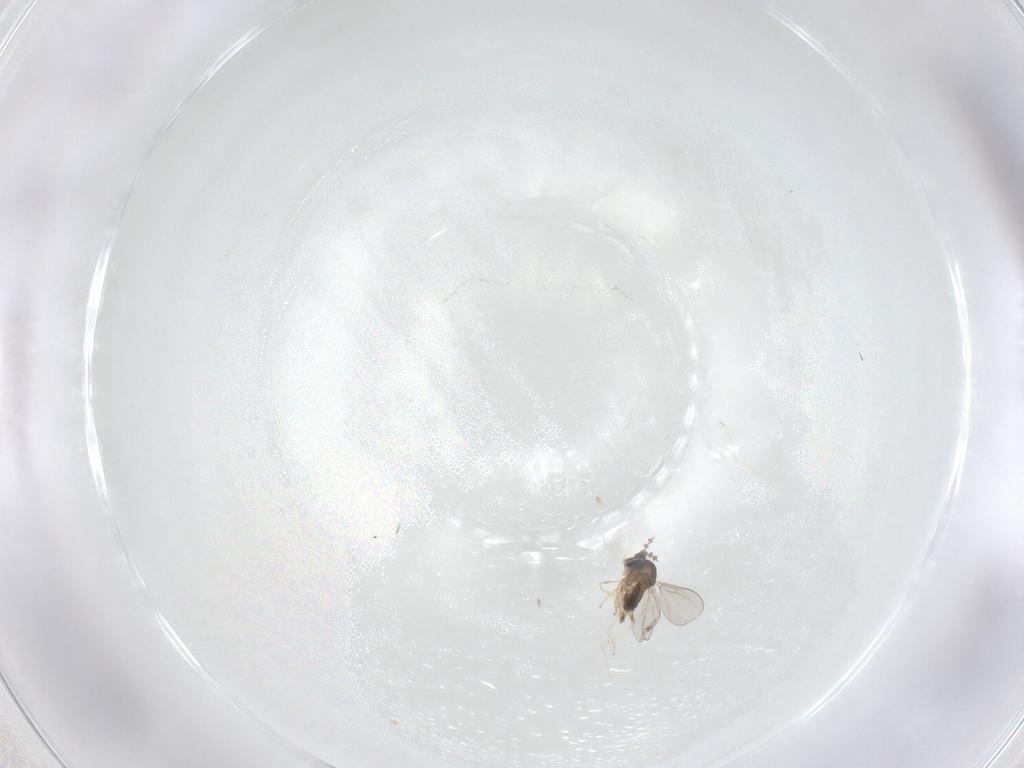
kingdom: Animalia
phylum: Arthropoda
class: Insecta
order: Diptera
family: Cecidomyiidae
